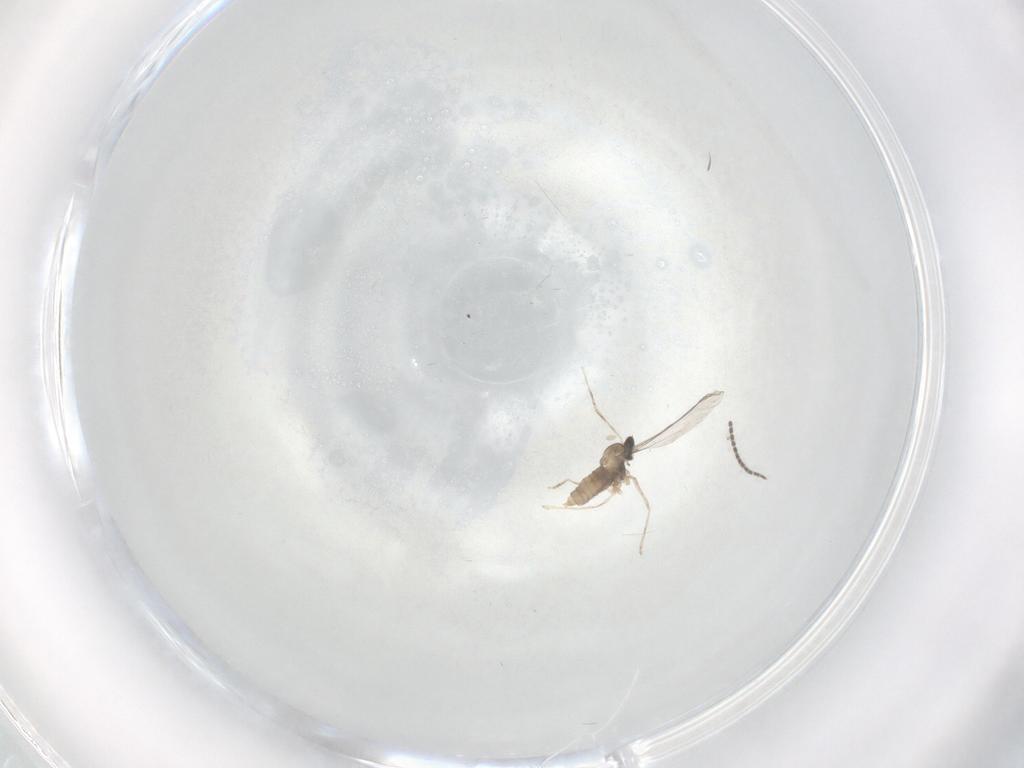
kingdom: Animalia
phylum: Arthropoda
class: Insecta
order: Diptera
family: Cecidomyiidae
